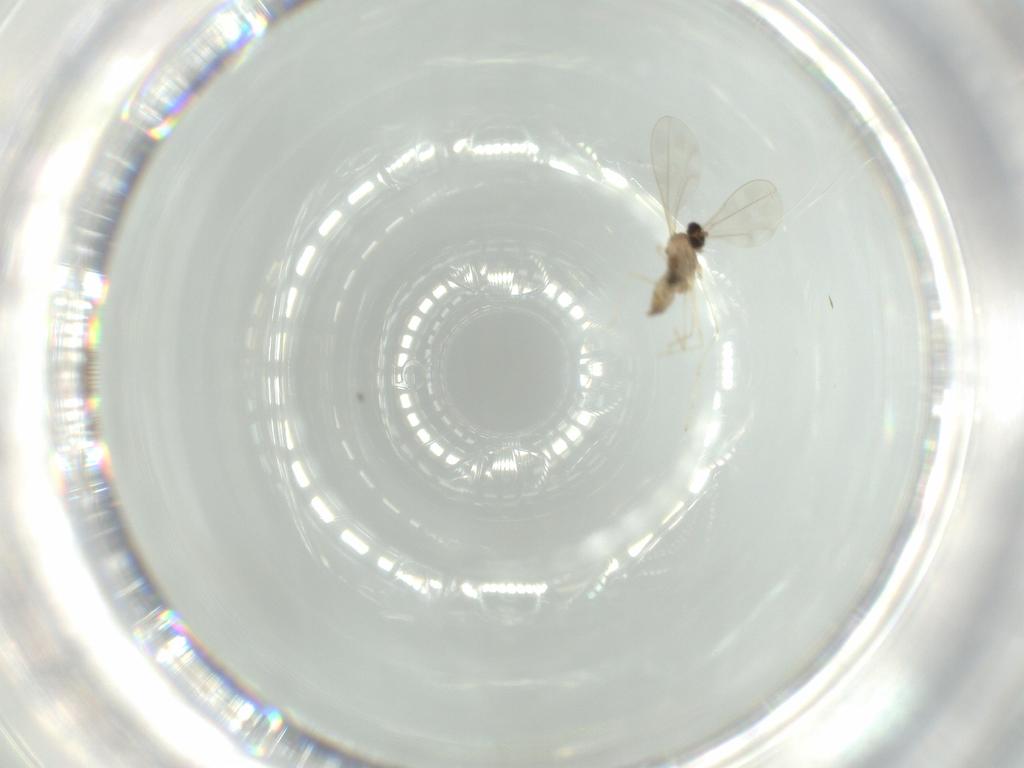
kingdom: Animalia
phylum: Arthropoda
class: Insecta
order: Diptera
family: Cecidomyiidae
